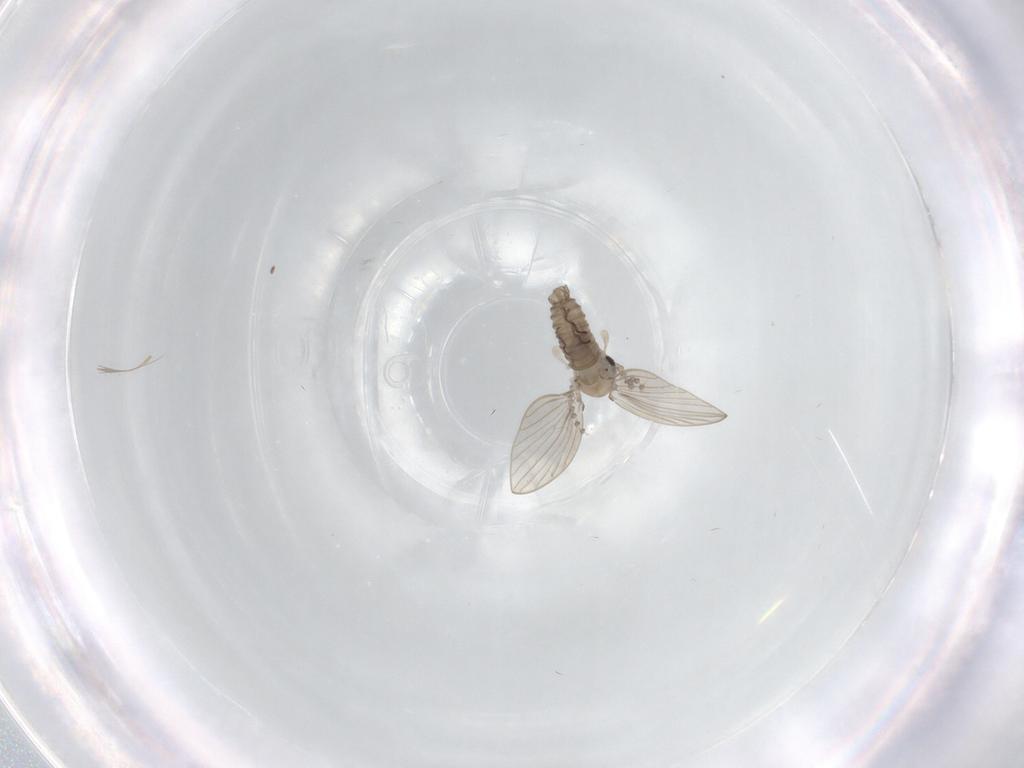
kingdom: Animalia
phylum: Arthropoda
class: Insecta
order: Diptera
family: Psychodidae
